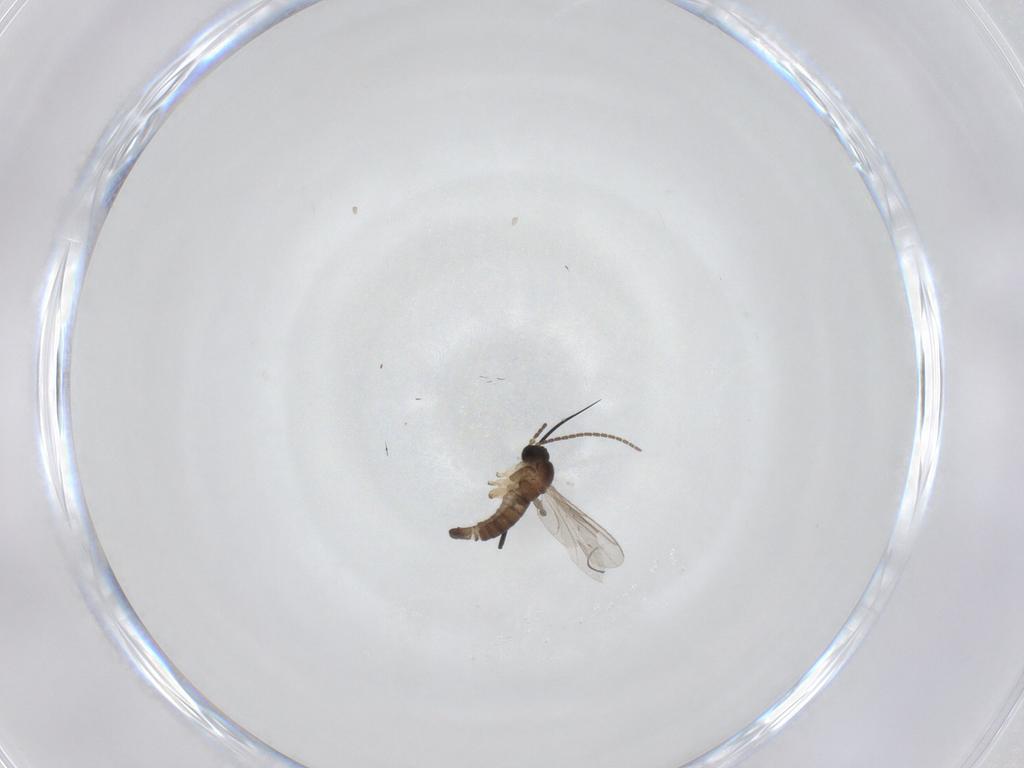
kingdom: Animalia
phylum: Arthropoda
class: Insecta
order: Diptera
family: Sciaridae
